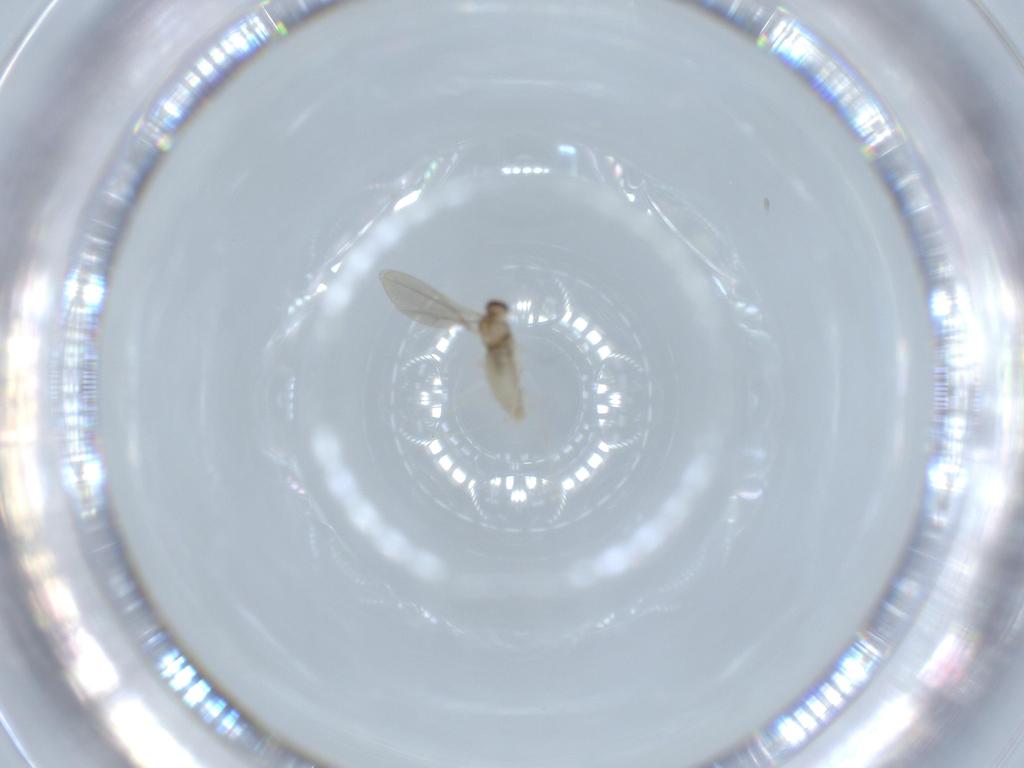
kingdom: Animalia
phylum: Arthropoda
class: Insecta
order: Diptera
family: Cecidomyiidae
